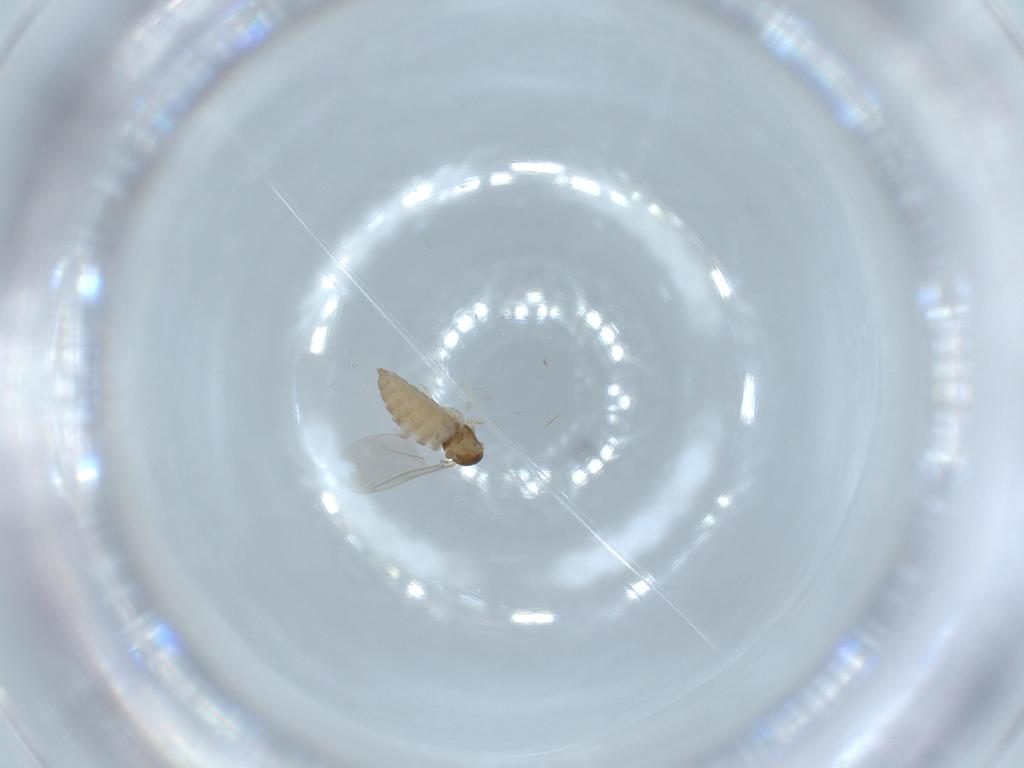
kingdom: Animalia
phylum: Arthropoda
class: Insecta
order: Diptera
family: Cecidomyiidae
